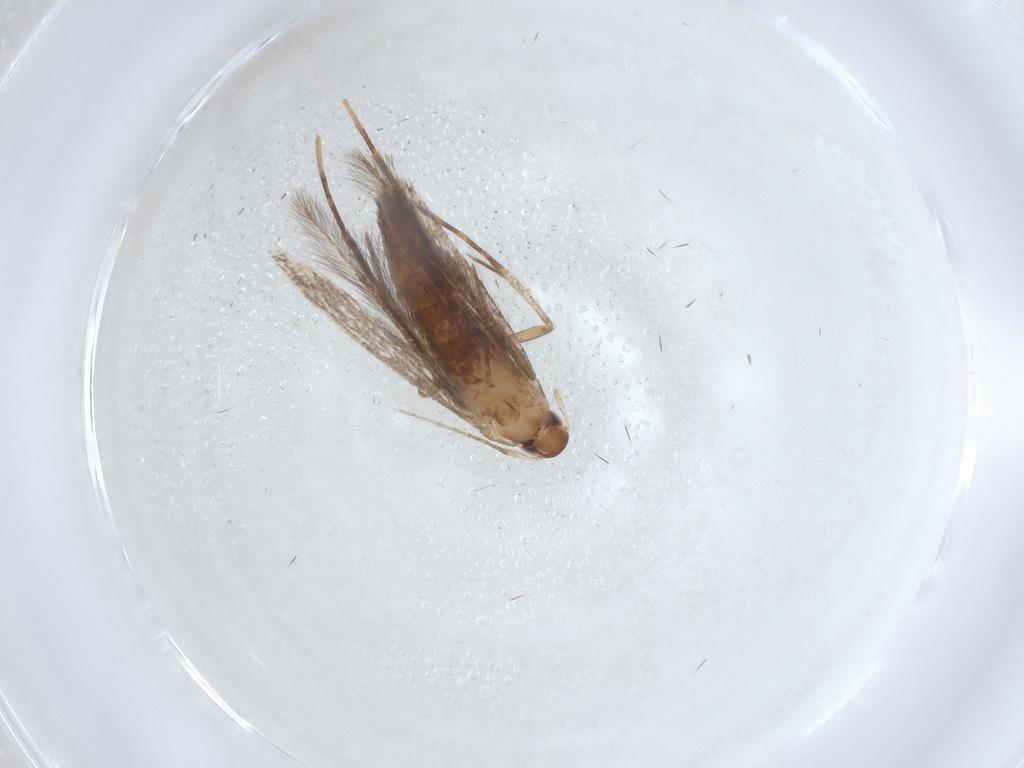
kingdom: Animalia
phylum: Arthropoda
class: Insecta
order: Lepidoptera
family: Cosmopterigidae
